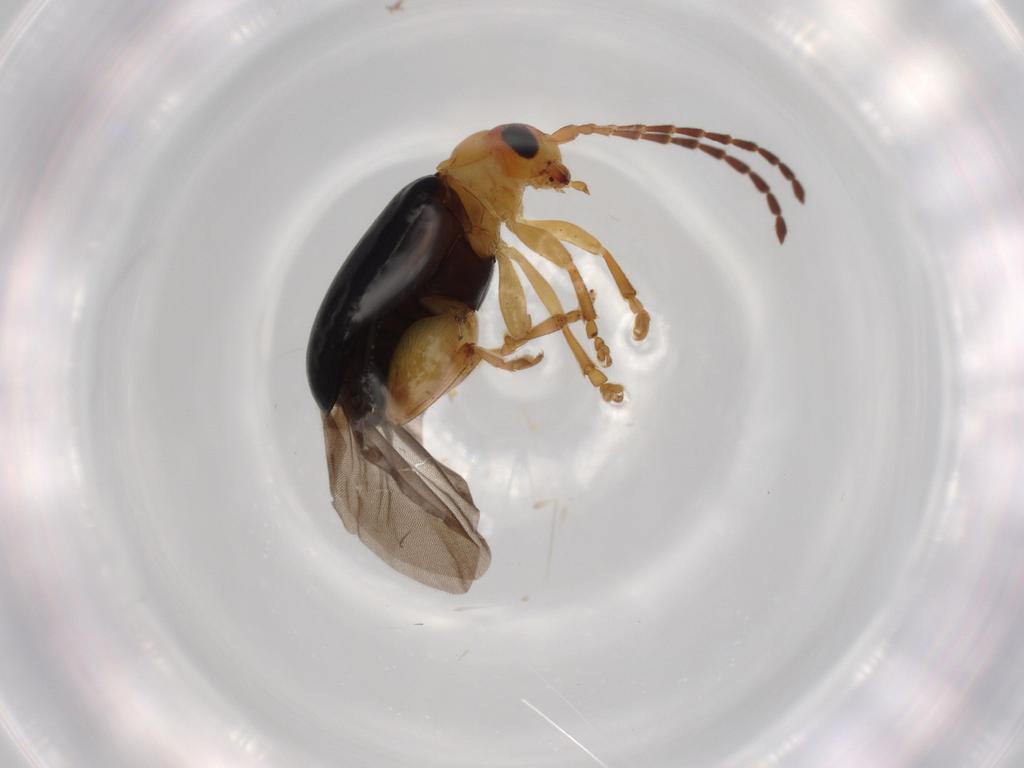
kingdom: Animalia
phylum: Arthropoda
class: Insecta
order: Coleoptera
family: Chrysomelidae
